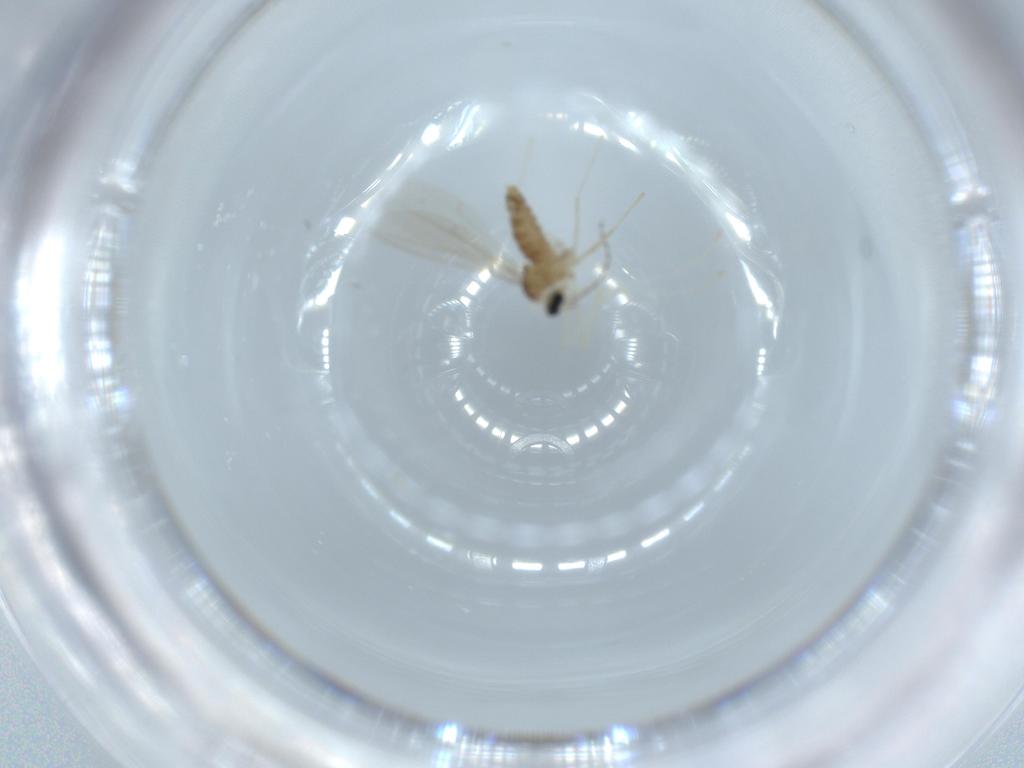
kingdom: Animalia
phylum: Arthropoda
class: Insecta
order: Diptera
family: Cecidomyiidae
